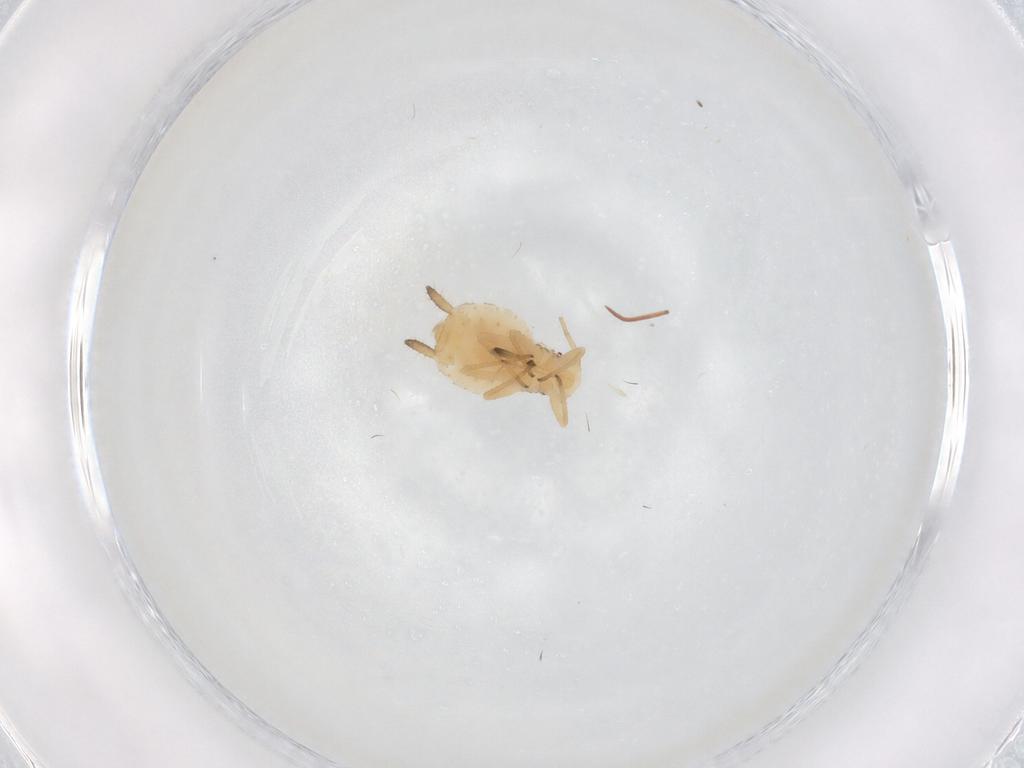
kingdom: Animalia
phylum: Arthropoda
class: Insecta
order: Hemiptera
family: Aphididae
